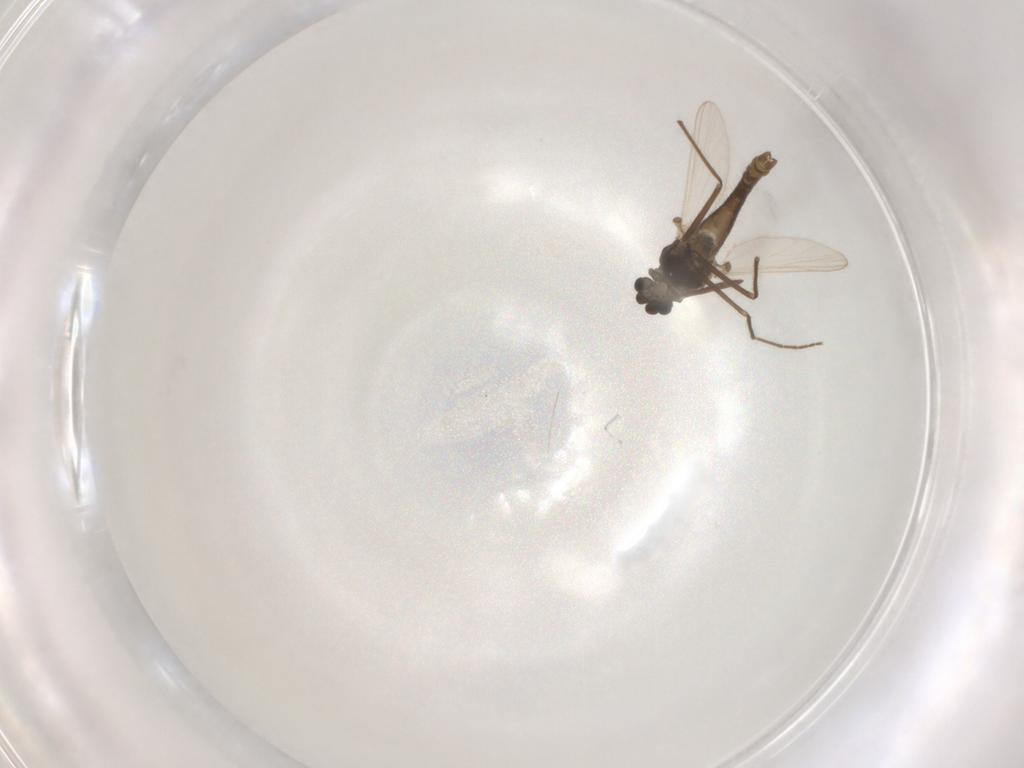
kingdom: Animalia
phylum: Arthropoda
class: Insecta
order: Diptera
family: Chironomidae
